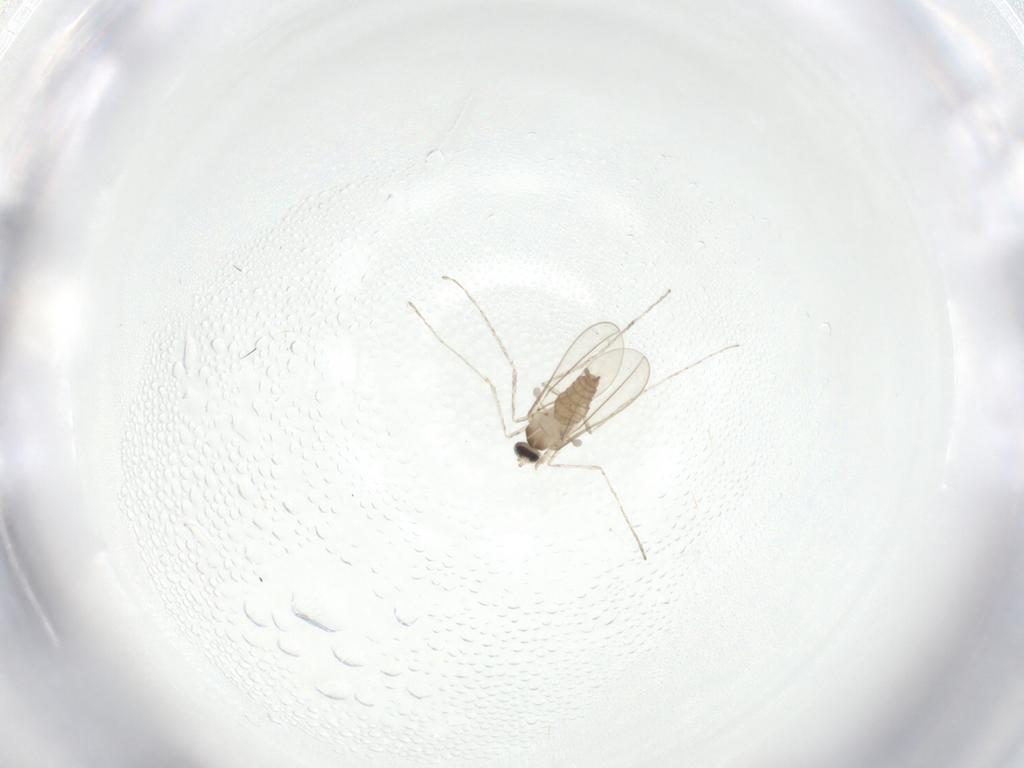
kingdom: Animalia
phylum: Arthropoda
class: Insecta
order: Diptera
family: Cecidomyiidae
